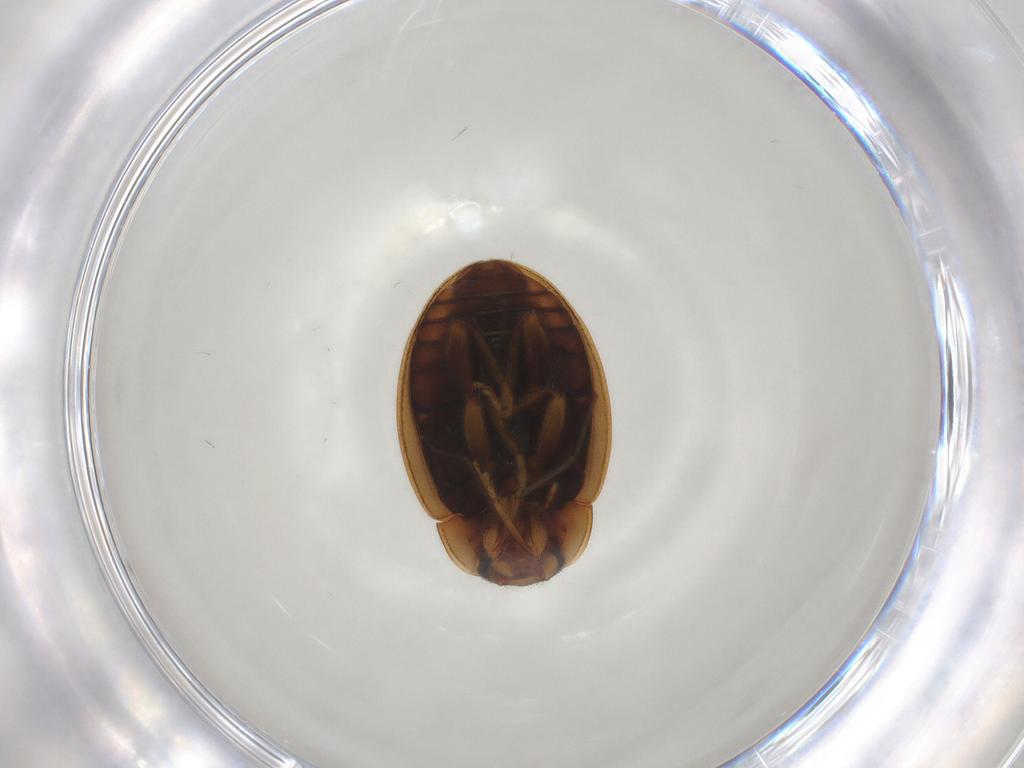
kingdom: Animalia
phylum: Arthropoda
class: Insecta
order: Coleoptera
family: Coccinellidae
